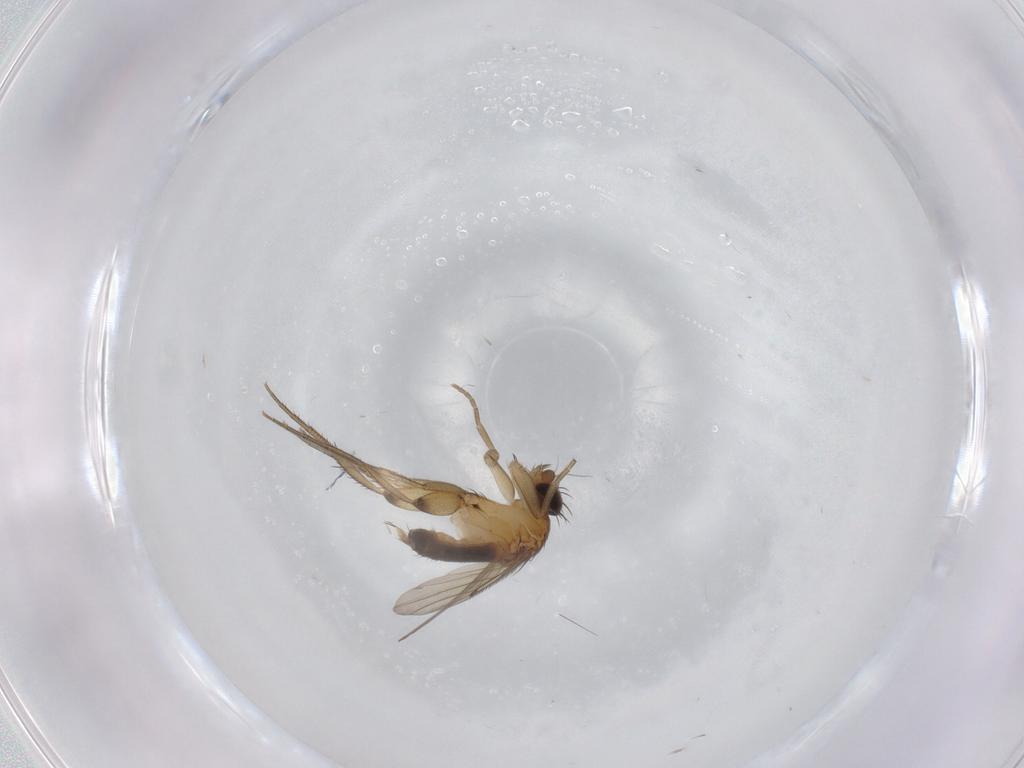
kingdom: Animalia
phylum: Arthropoda
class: Insecta
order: Diptera
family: Phoridae
